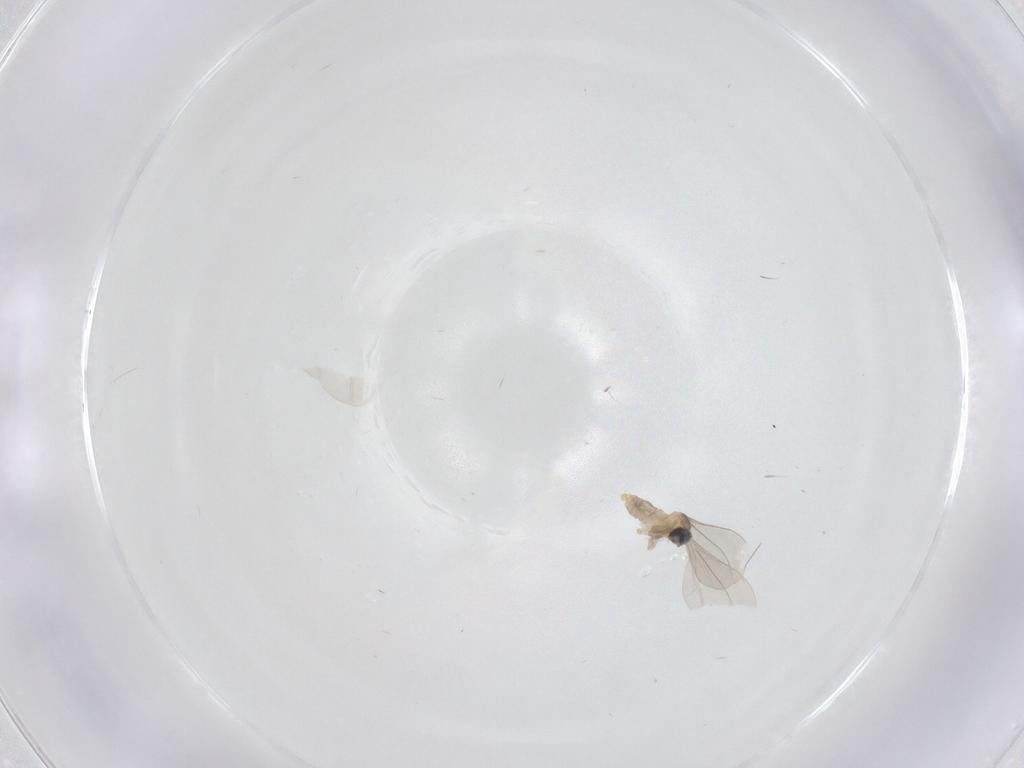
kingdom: Animalia
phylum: Arthropoda
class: Insecta
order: Diptera
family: Cecidomyiidae
